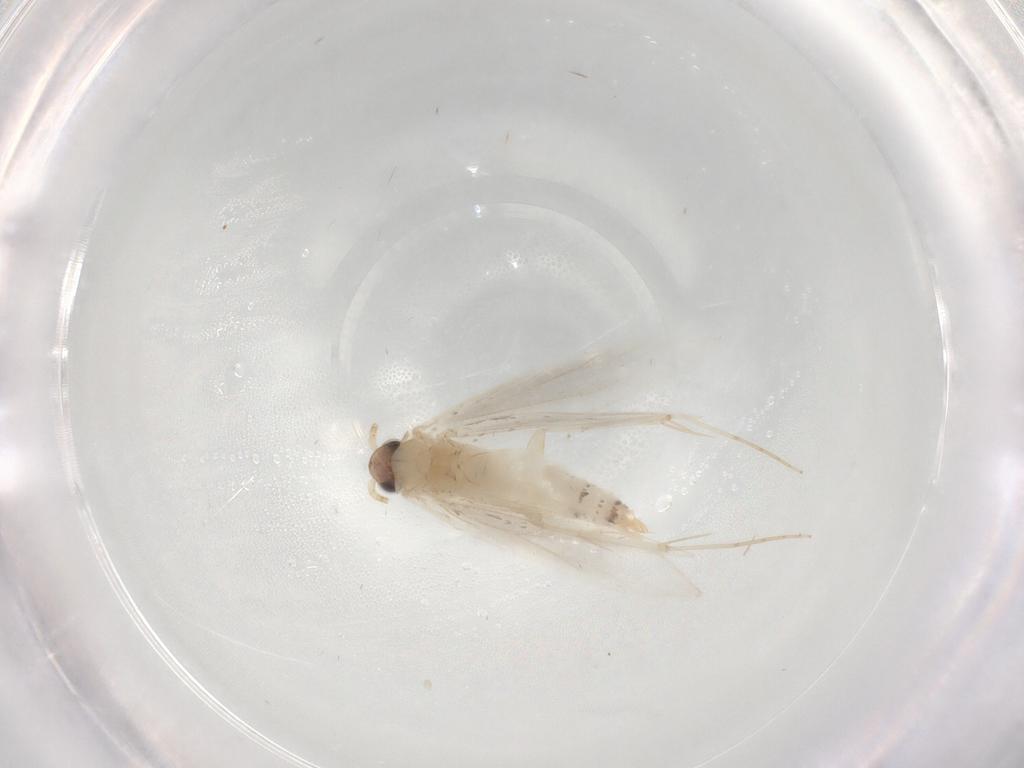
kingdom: Animalia
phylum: Arthropoda
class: Insecta
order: Lepidoptera
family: Tineidae
